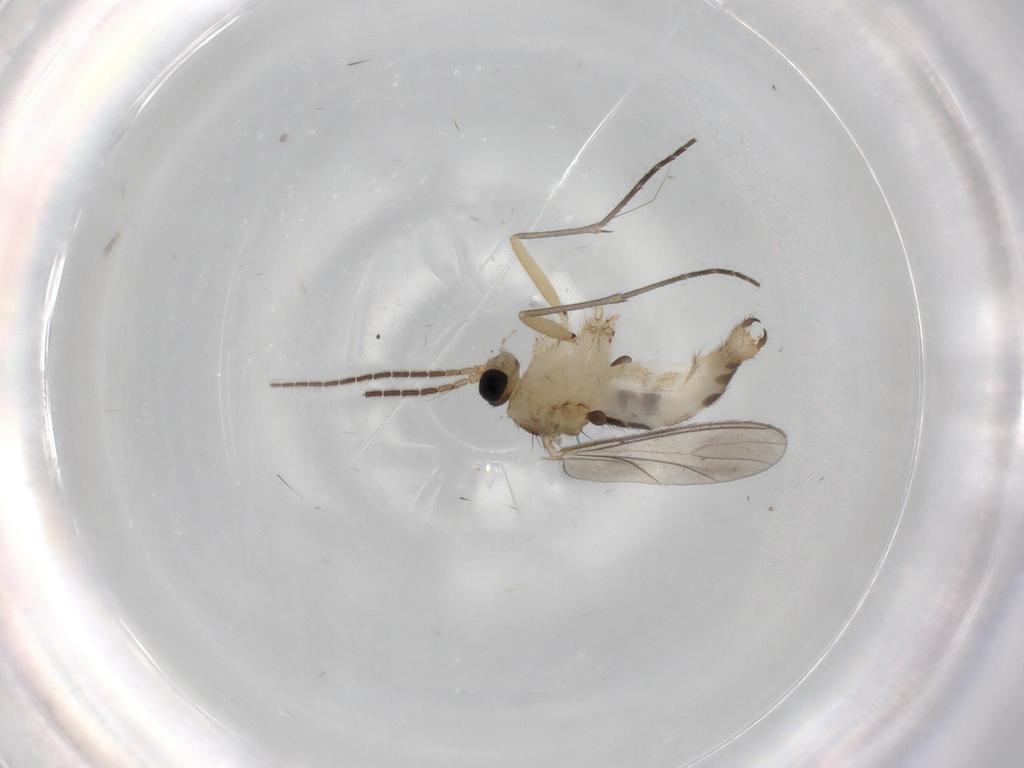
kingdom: Animalia
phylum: Arthropoda
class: Insecta
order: Diptera
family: Sciaridae
